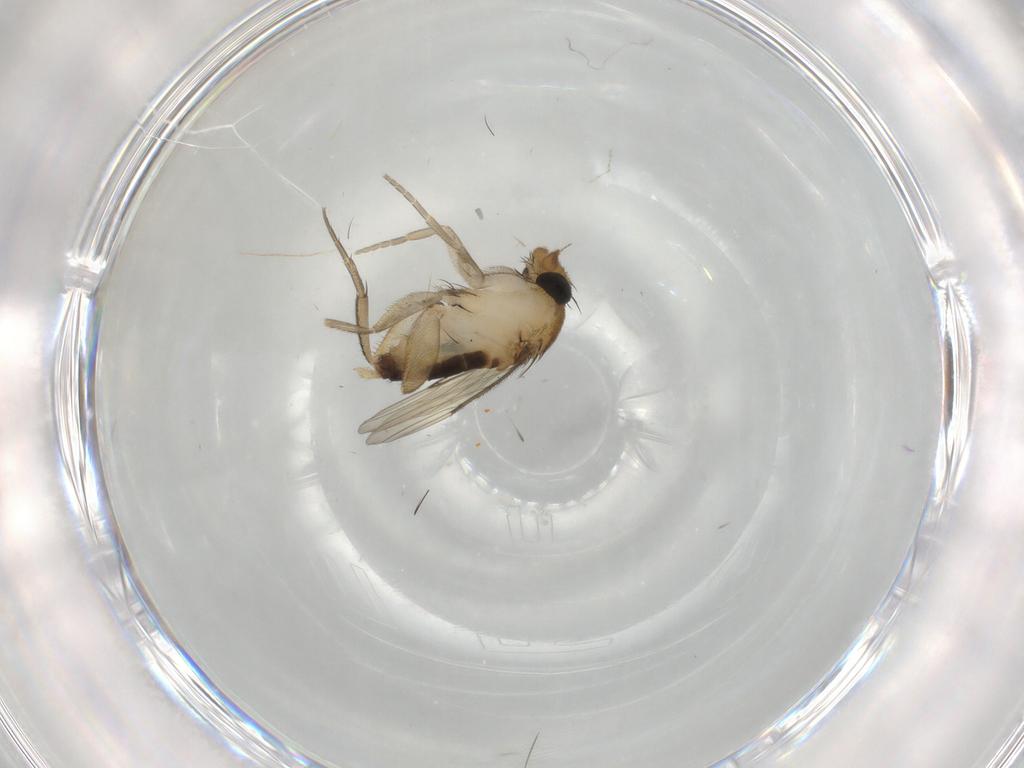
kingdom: Animalia
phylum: Arthropoda
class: Insecta
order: Diptera
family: Phoridae
